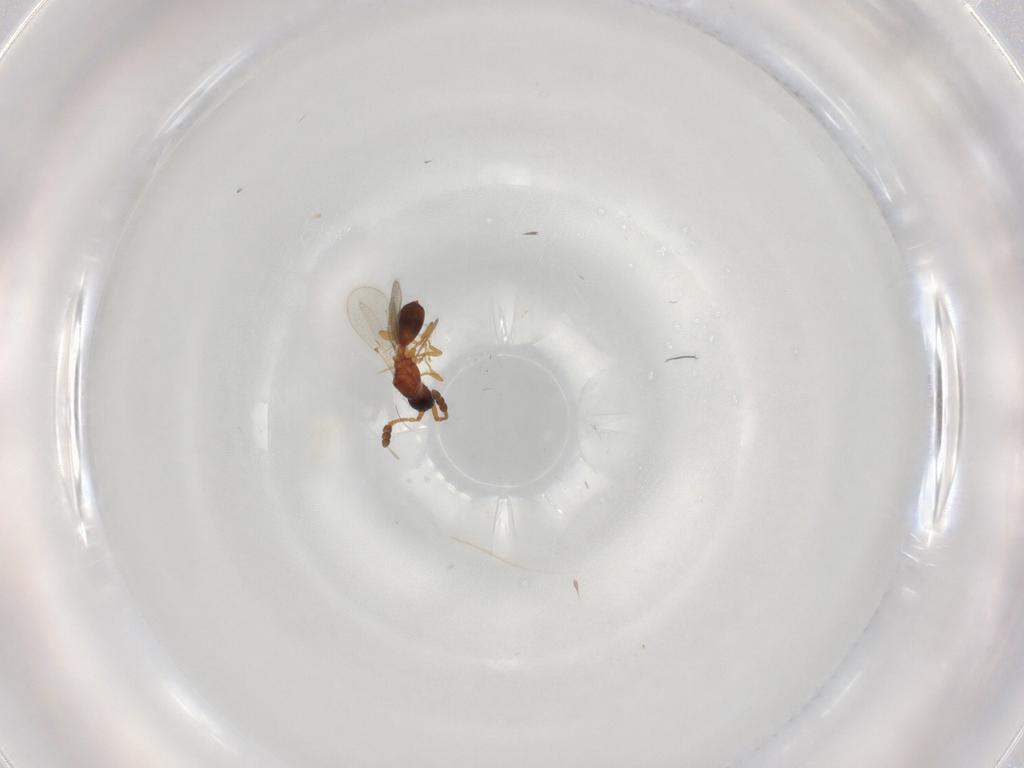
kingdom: Animalia
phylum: Arthropoda
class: Insecta
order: Hymenoptera
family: Diapriidae
